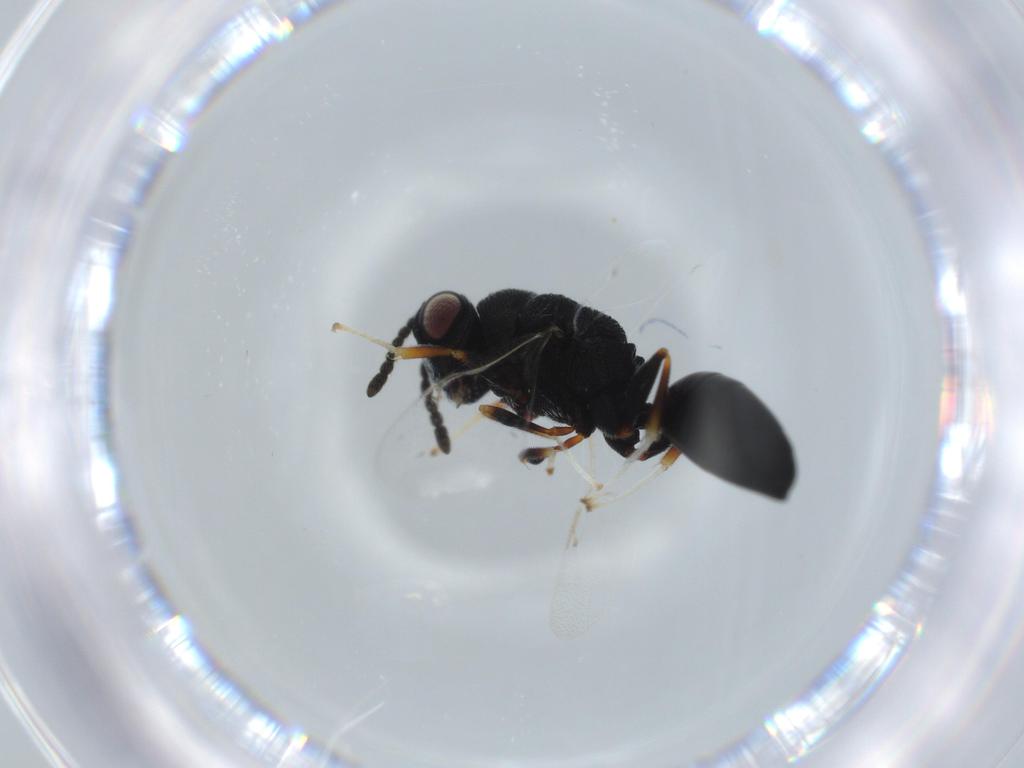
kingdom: Animalia
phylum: Arthropoda
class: Insecta
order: Hymenoptera
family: Eurytomidae
